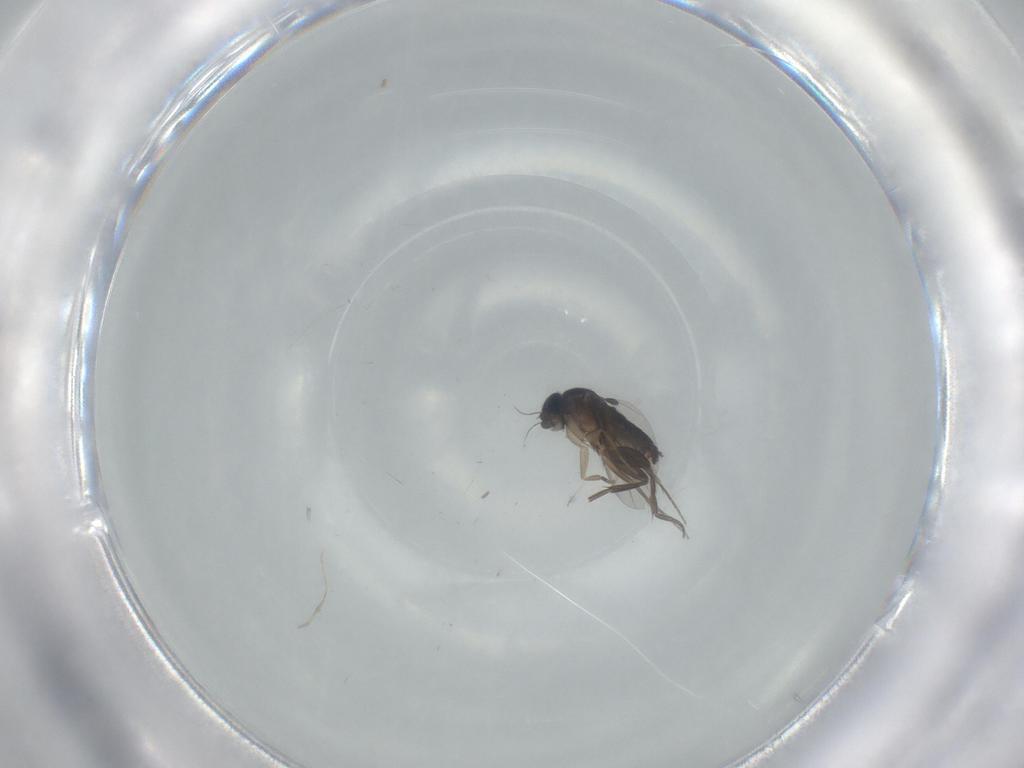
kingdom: Animalia
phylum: Arthropoda
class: Insecta
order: Diptera
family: Phoridae
